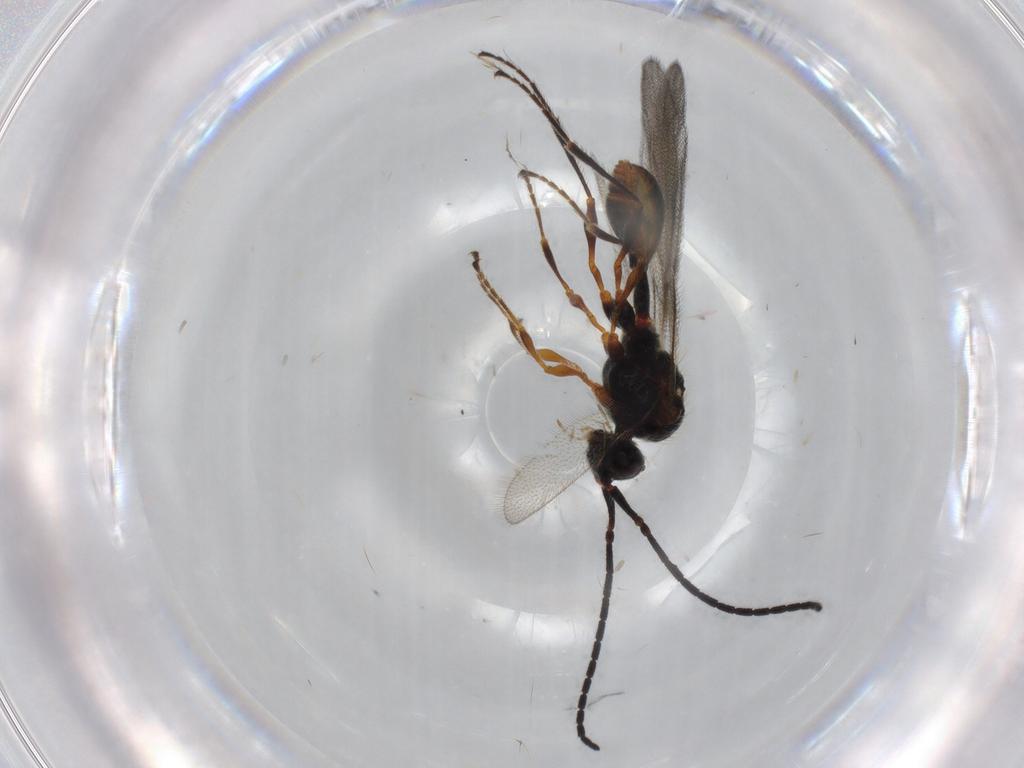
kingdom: Animalia
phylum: Arthropoda
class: Insecta
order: Hymenoptera
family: Diapriidae
